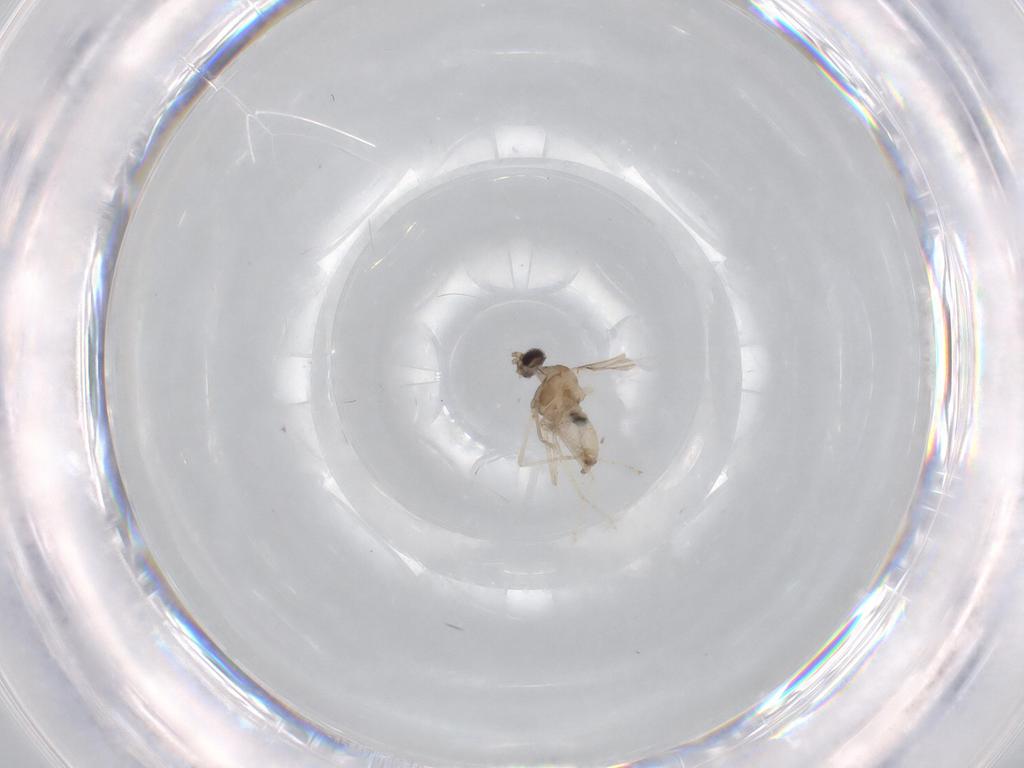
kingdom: Animalia
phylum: Arthropoda
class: Insecta
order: Diptera
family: Cecidomyiidae
